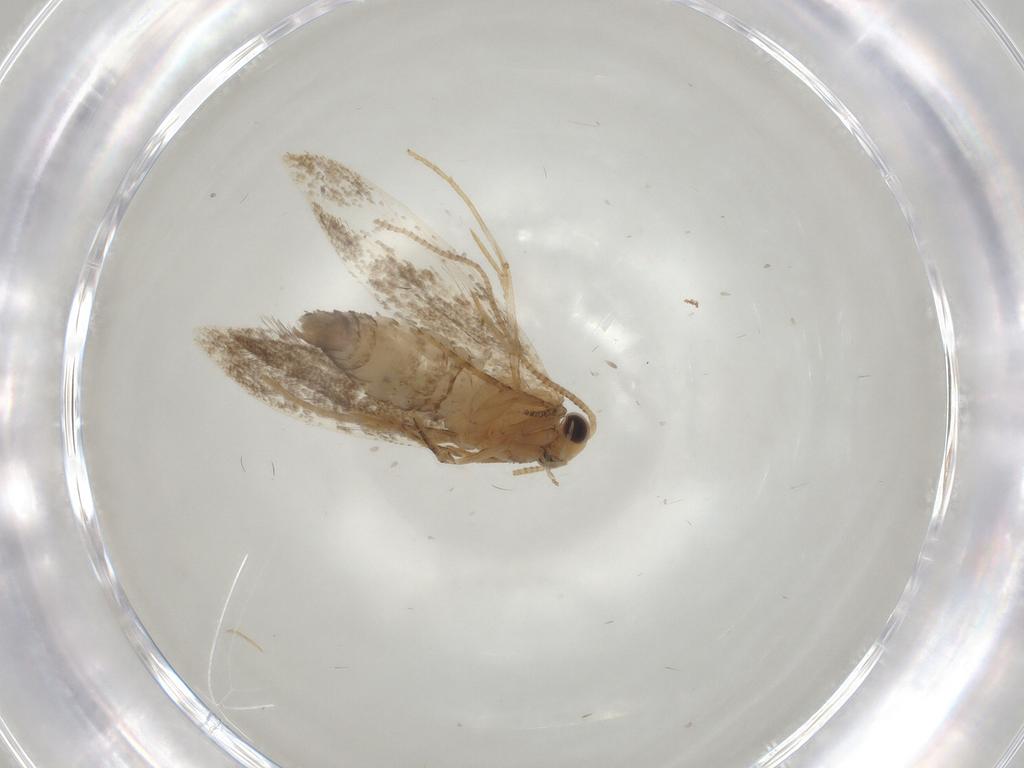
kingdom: Animalia
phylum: Arthropoda
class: Insecta
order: Lepidoptera
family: Tineidae
